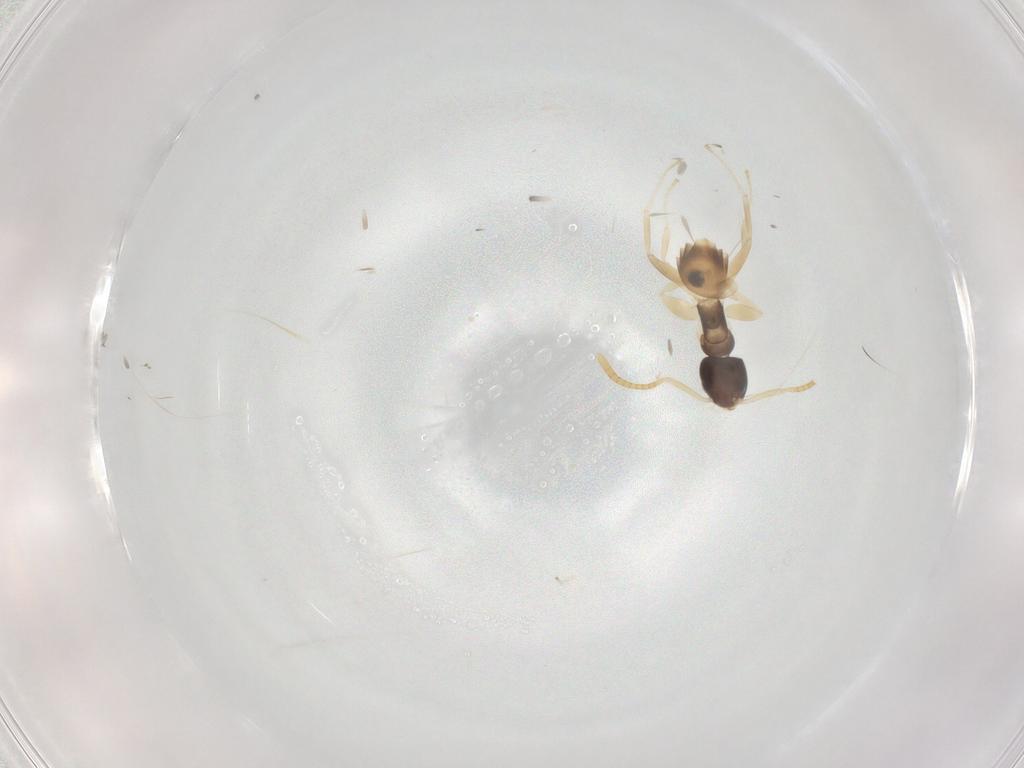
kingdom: Animalia
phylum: Arthropoda
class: Insecta
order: Hymenoptera
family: Formicidae
